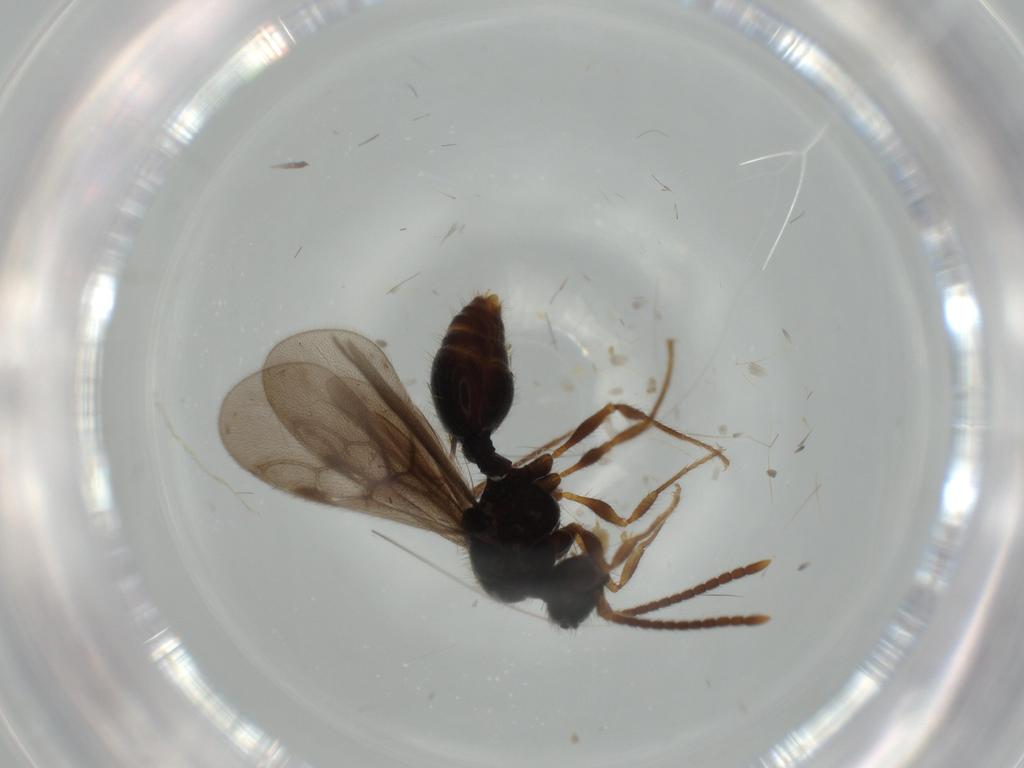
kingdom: Animalia
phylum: Arthropoda
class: Insecta
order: Hymenoptera
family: Formicidae
